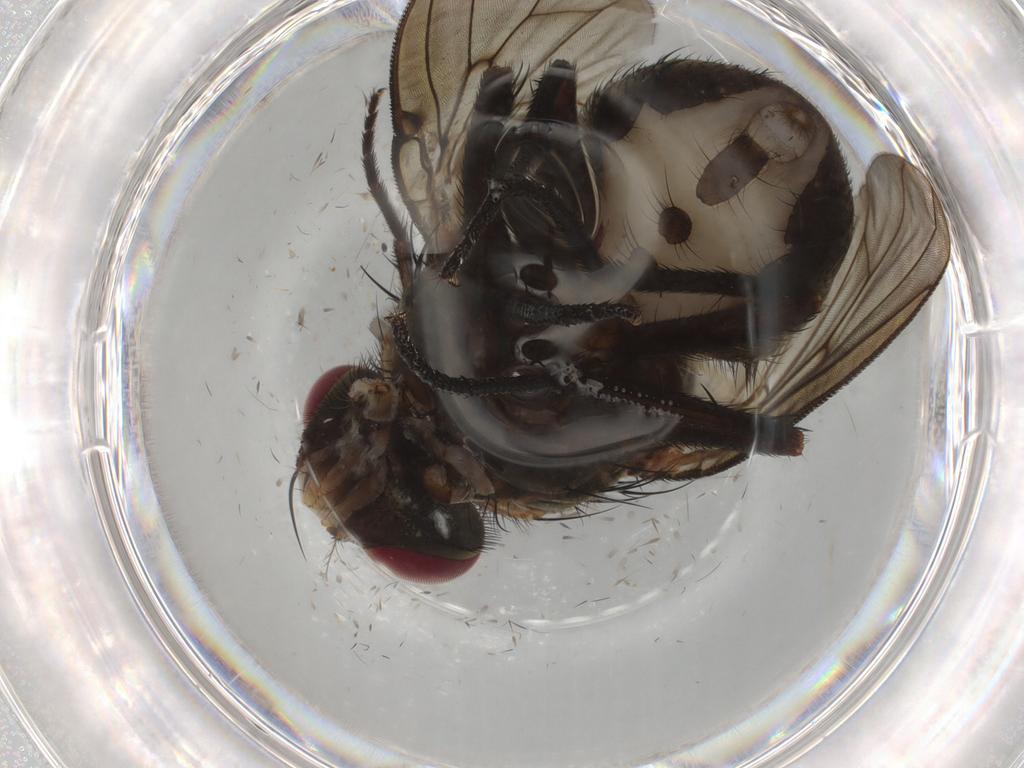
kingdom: Animalia
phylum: Arthropoda
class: Insecta
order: Diptera
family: Muscidae
